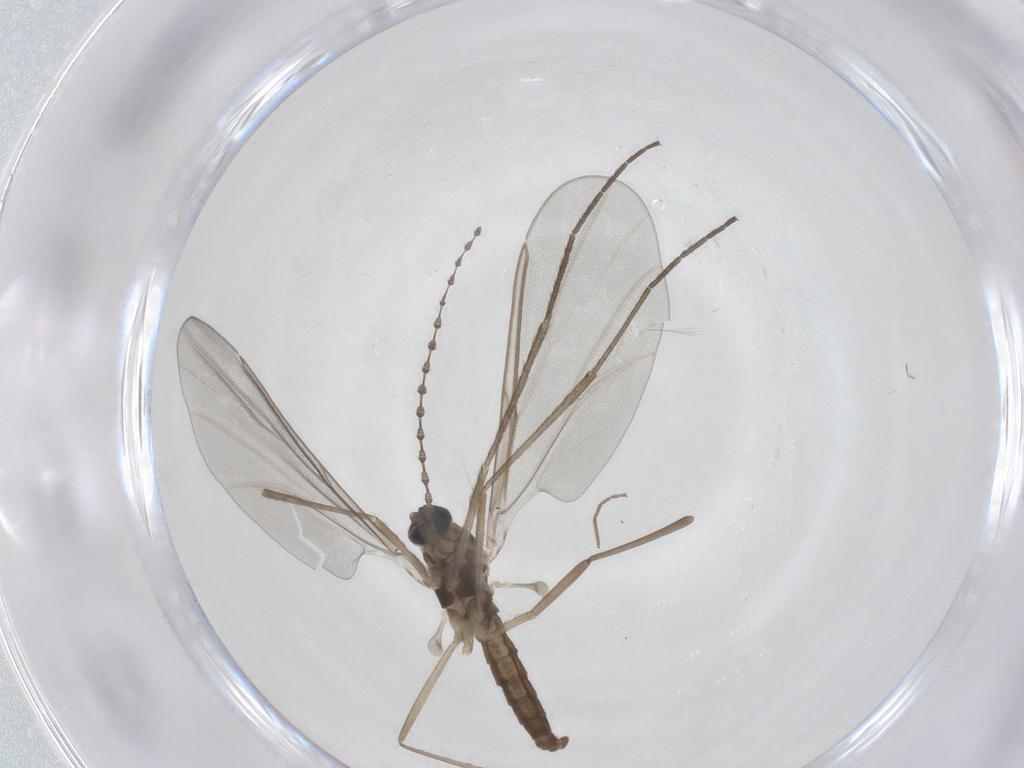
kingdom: Animalia
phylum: Arthropoda
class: Insecta
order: Diptera
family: Cecidomyiidae
